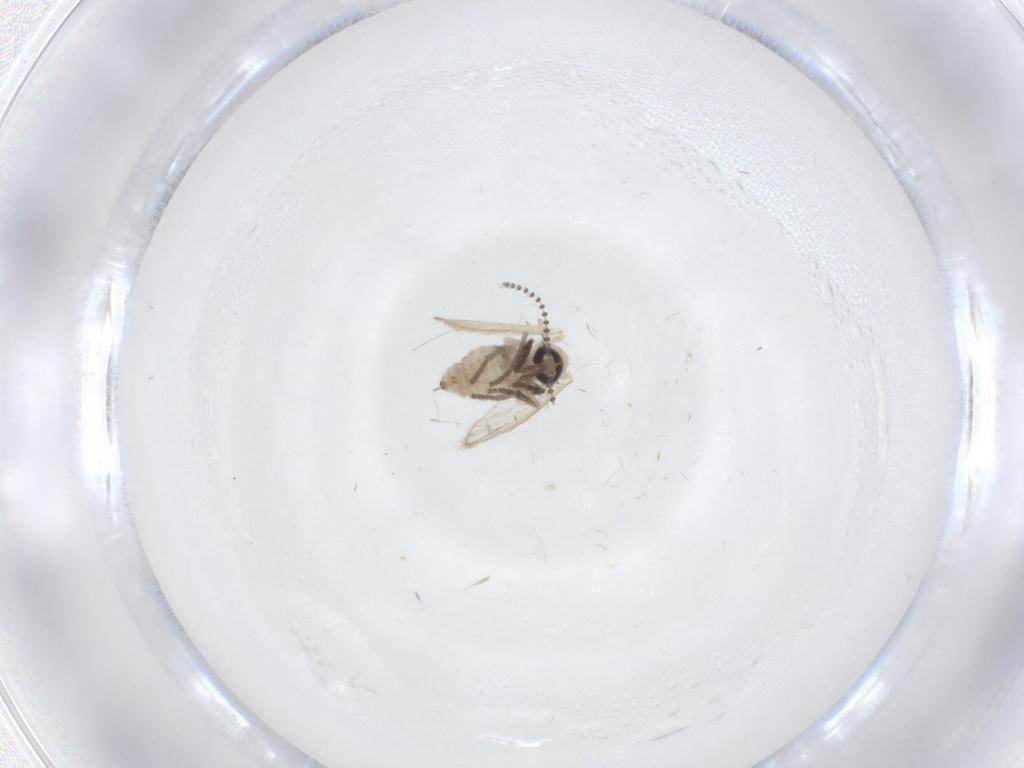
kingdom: Animalia
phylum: Arthropoda
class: Insecta
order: Diptera
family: Psychodidae
